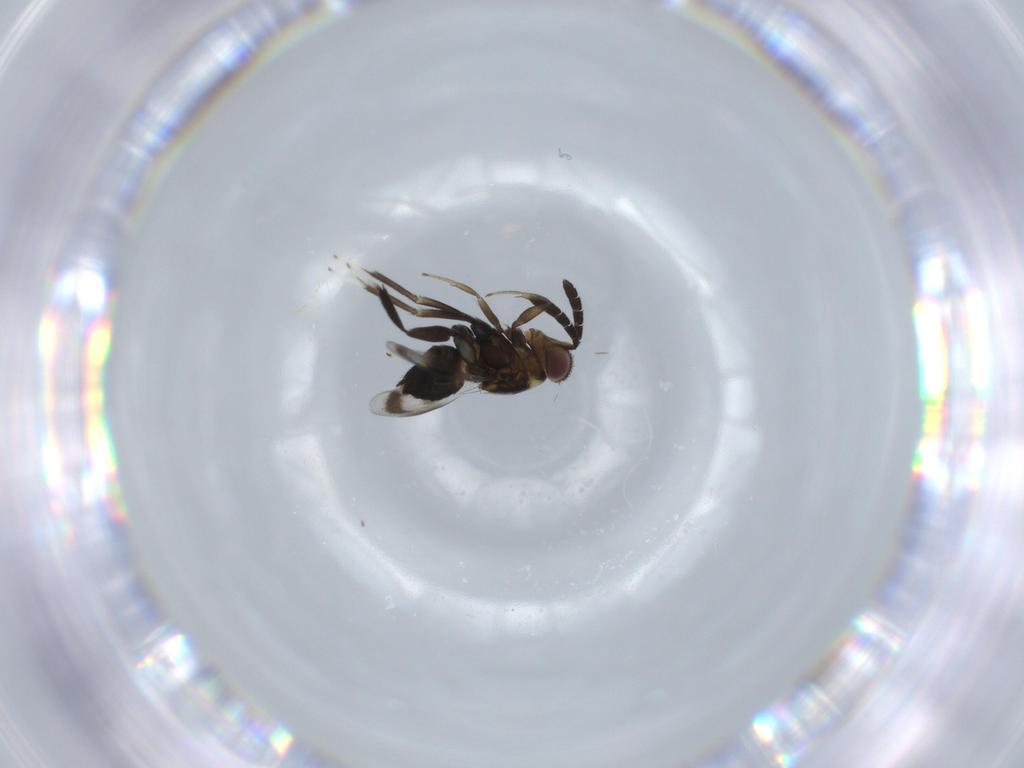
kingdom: Animalia
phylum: Arthropoda
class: Insecta
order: Hymenoptera
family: Aphelinidae
